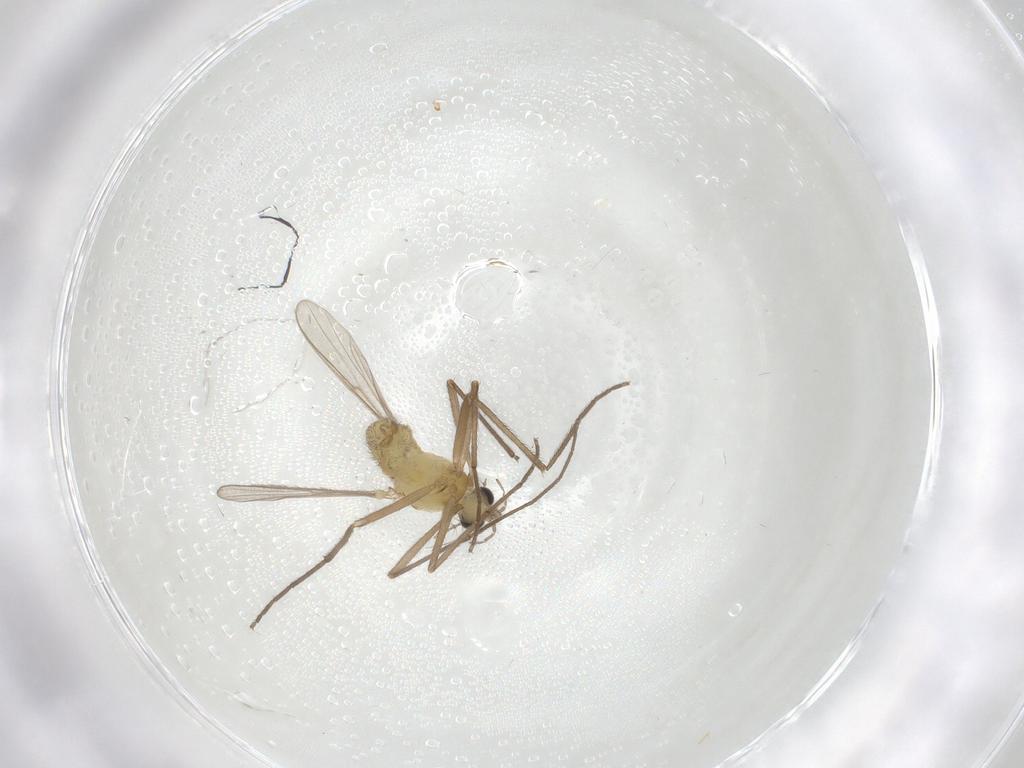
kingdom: Animalia
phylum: Arthropoda
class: Insecta
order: Diptera
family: Chironomidae
